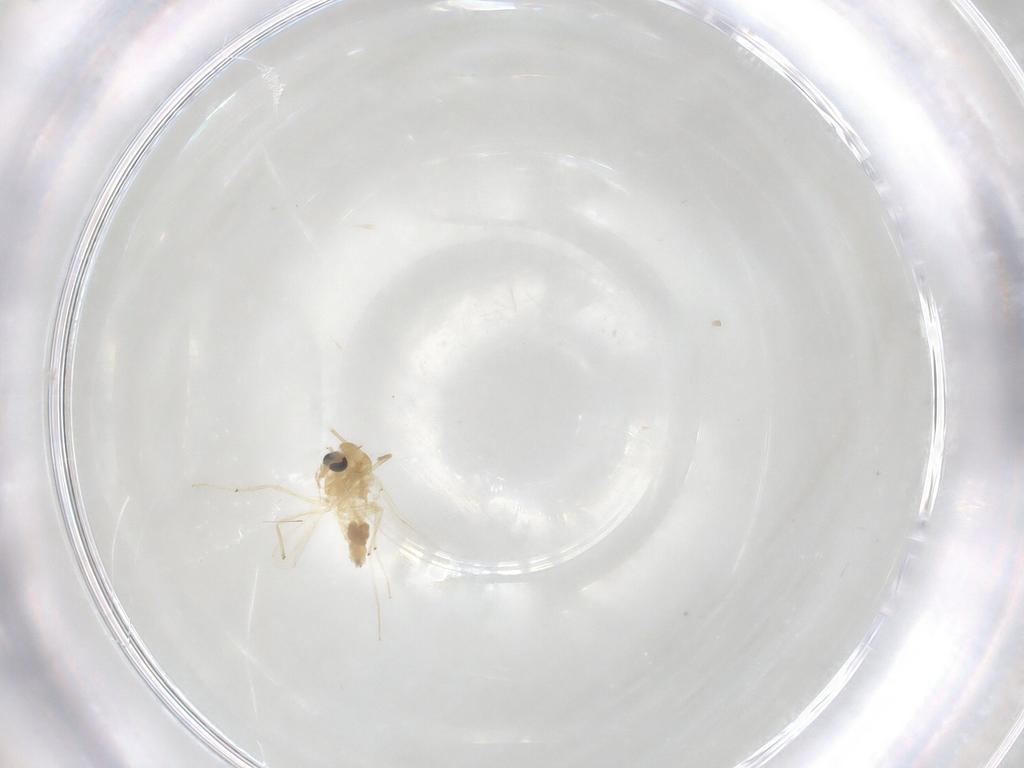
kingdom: Animalia
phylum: Arthropoda
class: Insecta
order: Diptera
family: Chironomidae
